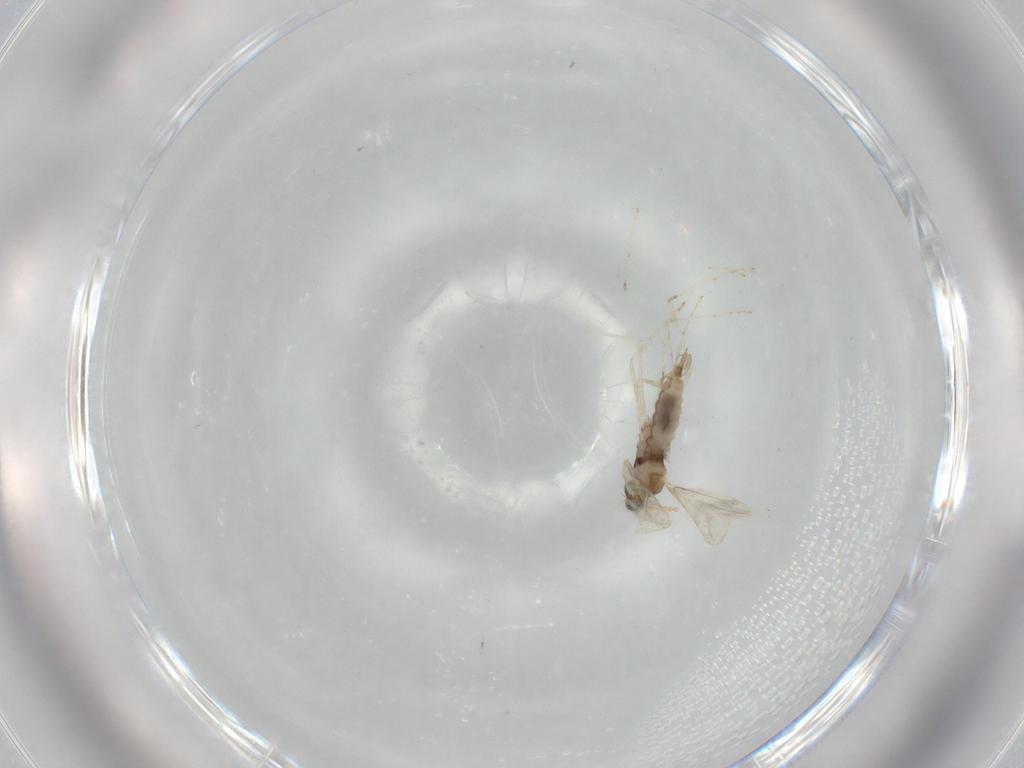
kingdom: Animalia
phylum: Arthropoda
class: Insecta
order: Diptera
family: Cecidomyiidae
